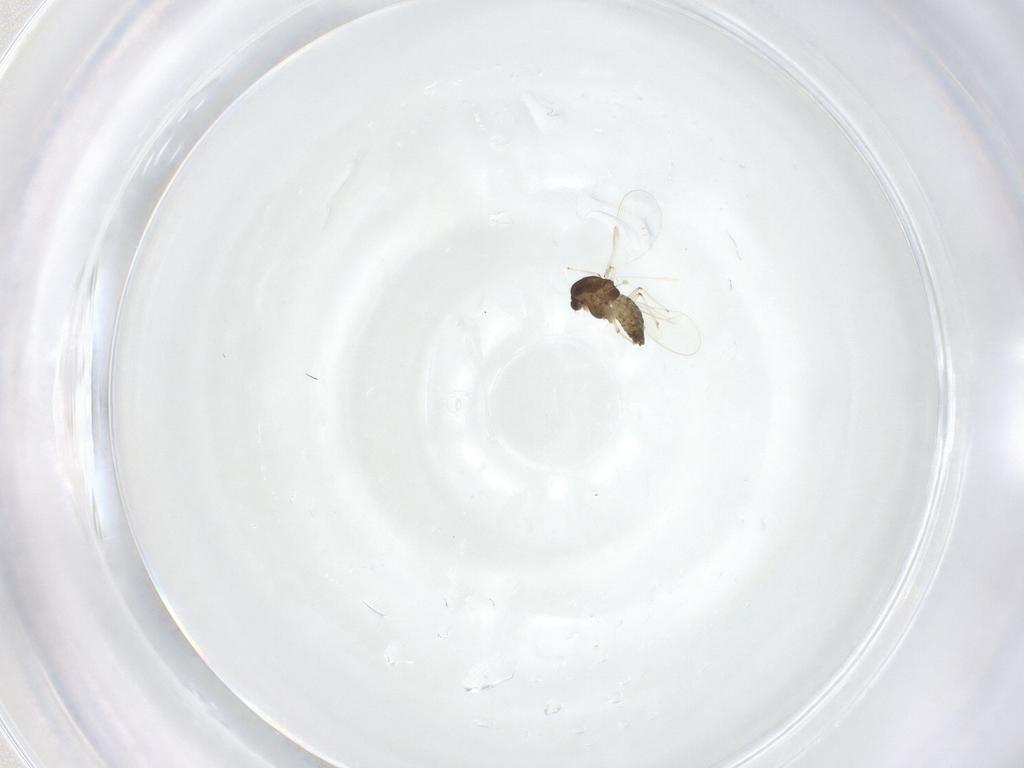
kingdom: Animalia
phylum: Arthropoda
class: Insecta
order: Diptera
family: Chironomidae
